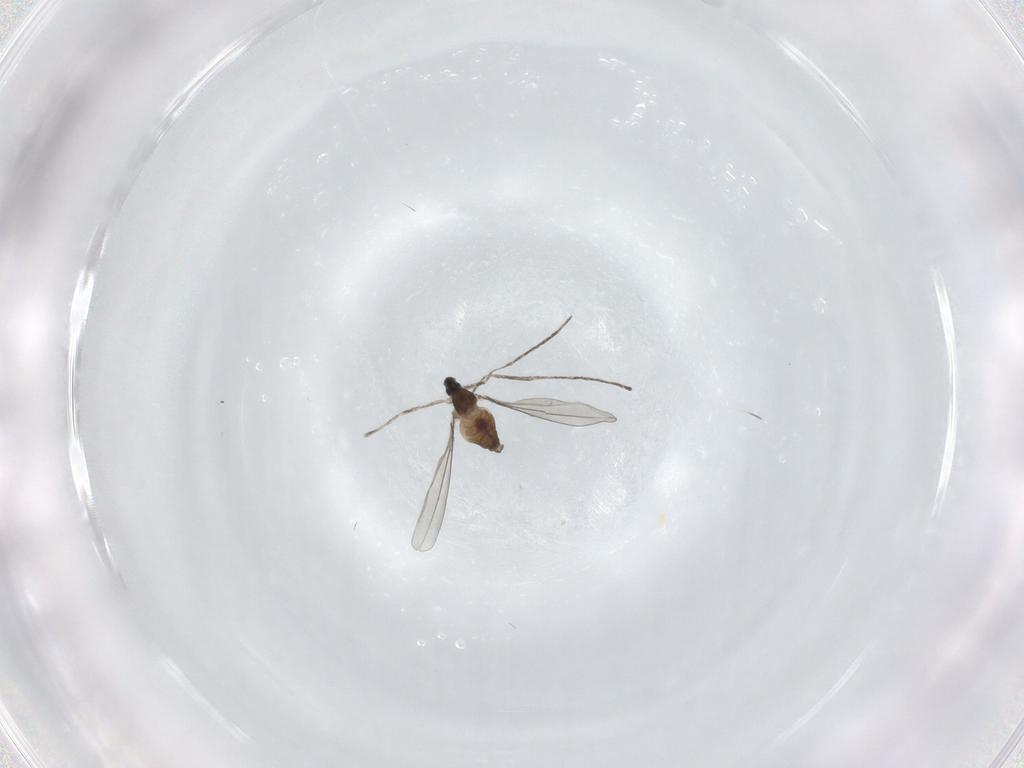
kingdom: Animalia
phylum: Arthropoda
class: Insecta
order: Diptera
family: Cecidomyiidae
